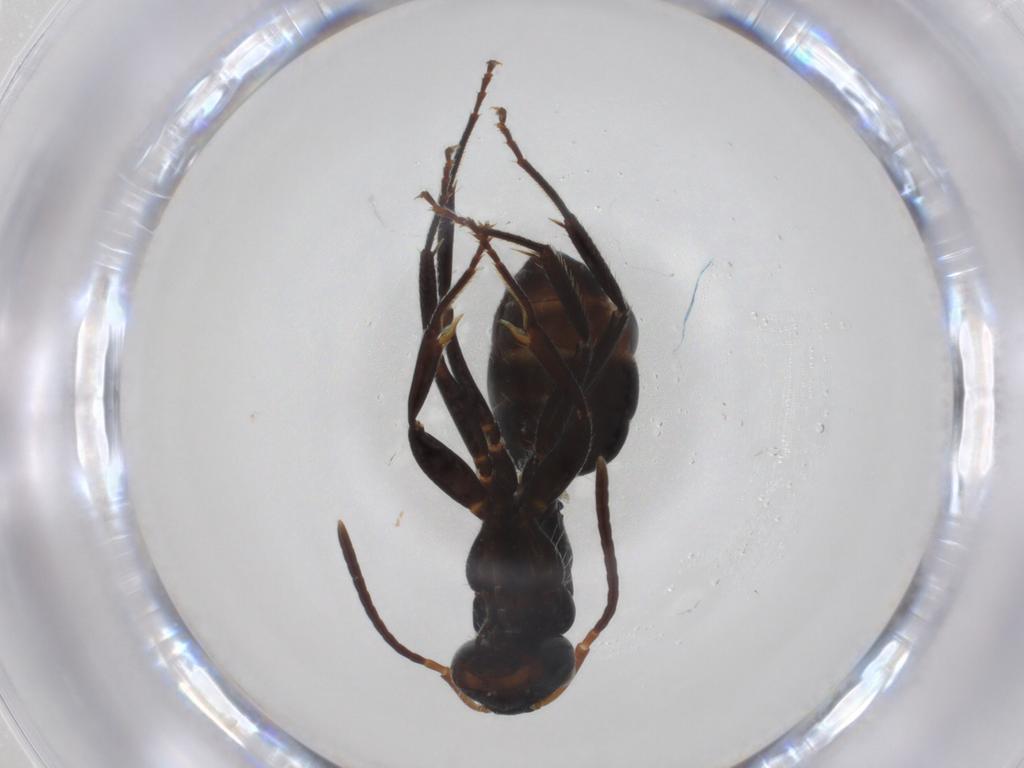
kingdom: Animalia
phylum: Arthropoda
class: Insecta
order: Hymenoptera
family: Formicidae
